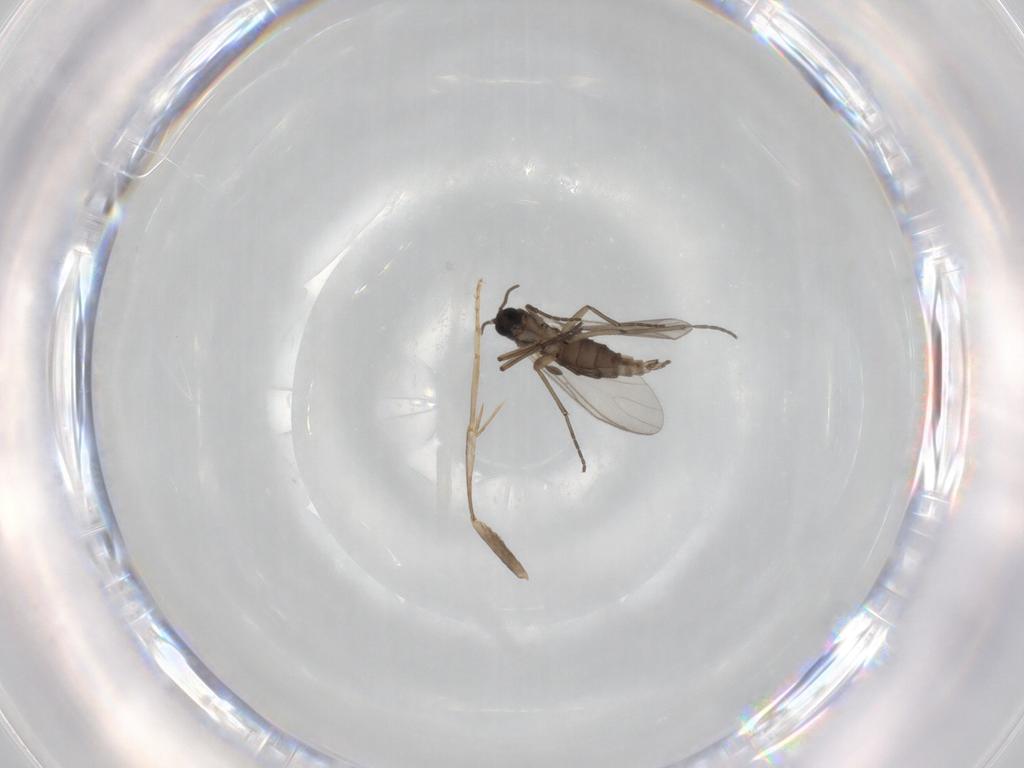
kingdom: Animalia
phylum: Arthropoda
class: Insecta
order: Diptera
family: Sciaridae
